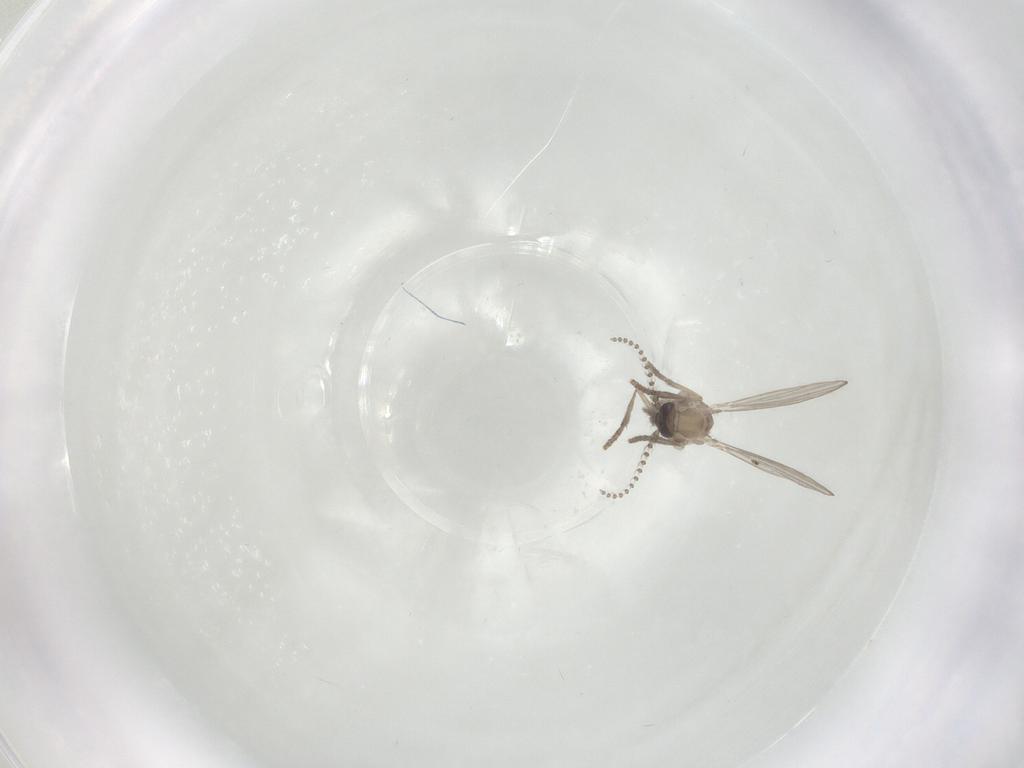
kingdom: Animalia
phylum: Arthropoda
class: Insecta
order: Diptera
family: Psychodidae
